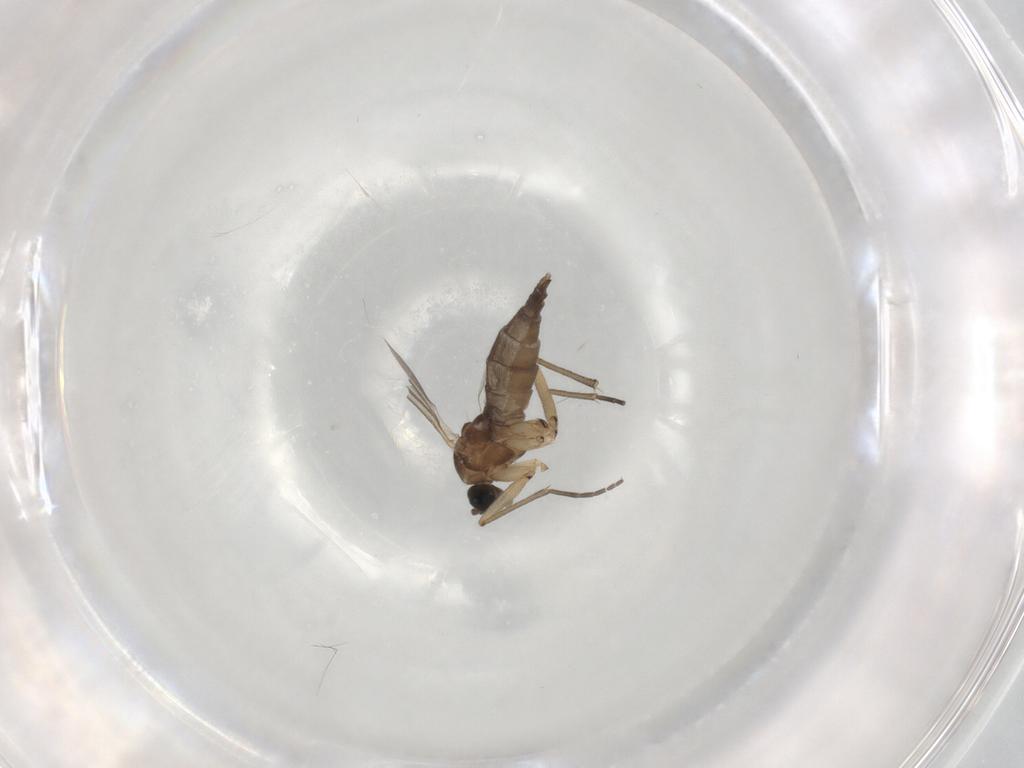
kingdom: Animalia
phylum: Arthropoda
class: Insecta
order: Diptera
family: Sciaridae
